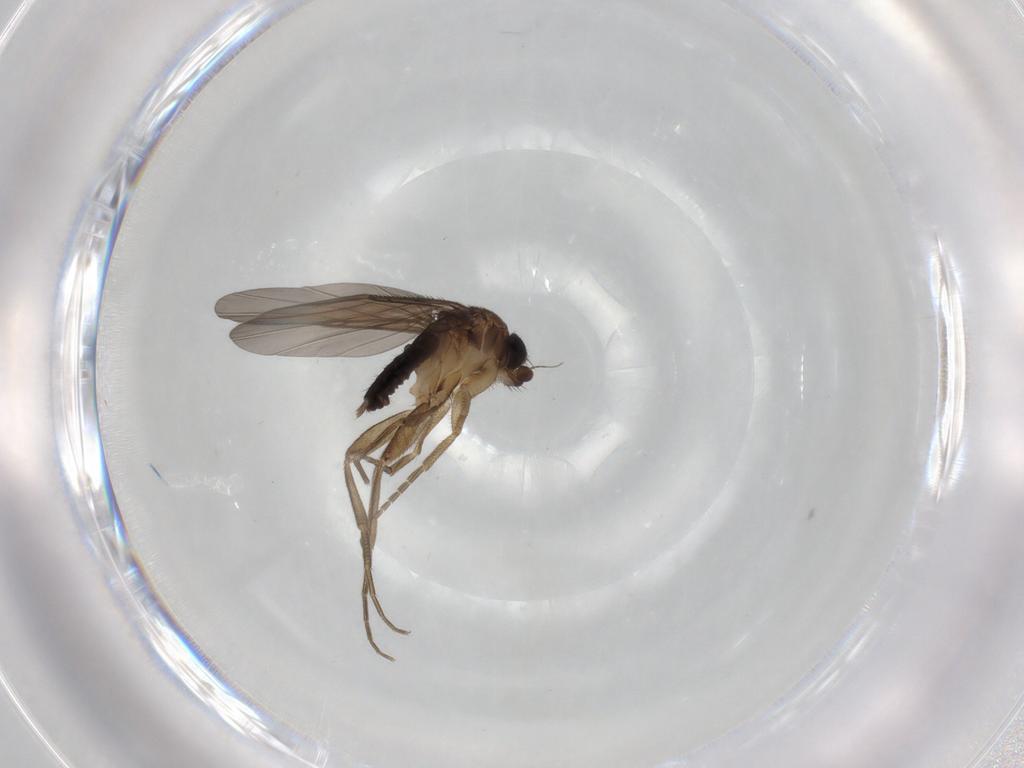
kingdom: Animalia
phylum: Arthropoda
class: Insecta
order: Diptera
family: Phoridae
